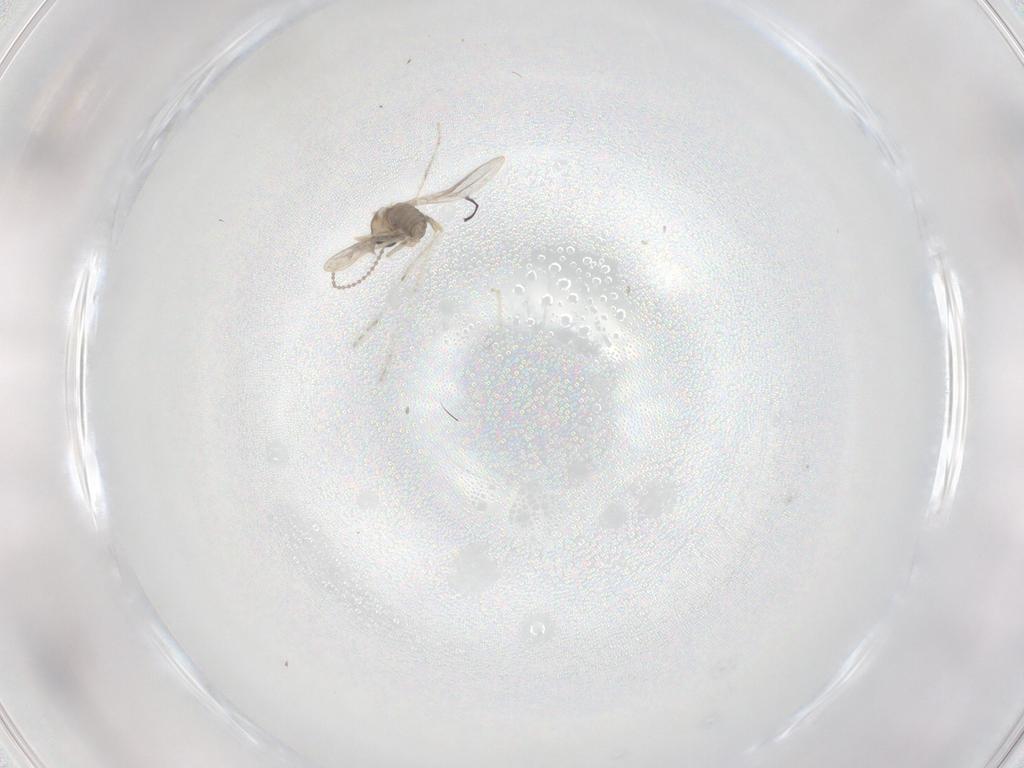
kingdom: Animalia
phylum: Arthropoda
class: Insecta
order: Diptera
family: Cecidomyiidae
